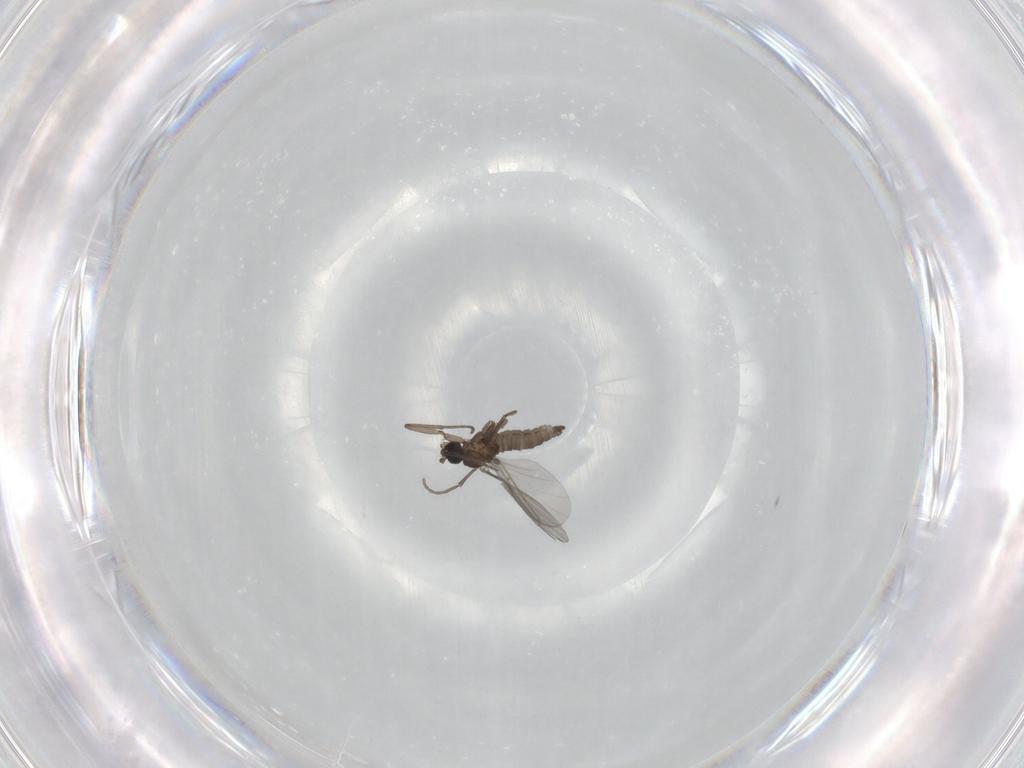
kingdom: Animalia
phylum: Arthropoda
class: Insecta
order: Diptera
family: Sciaridae
